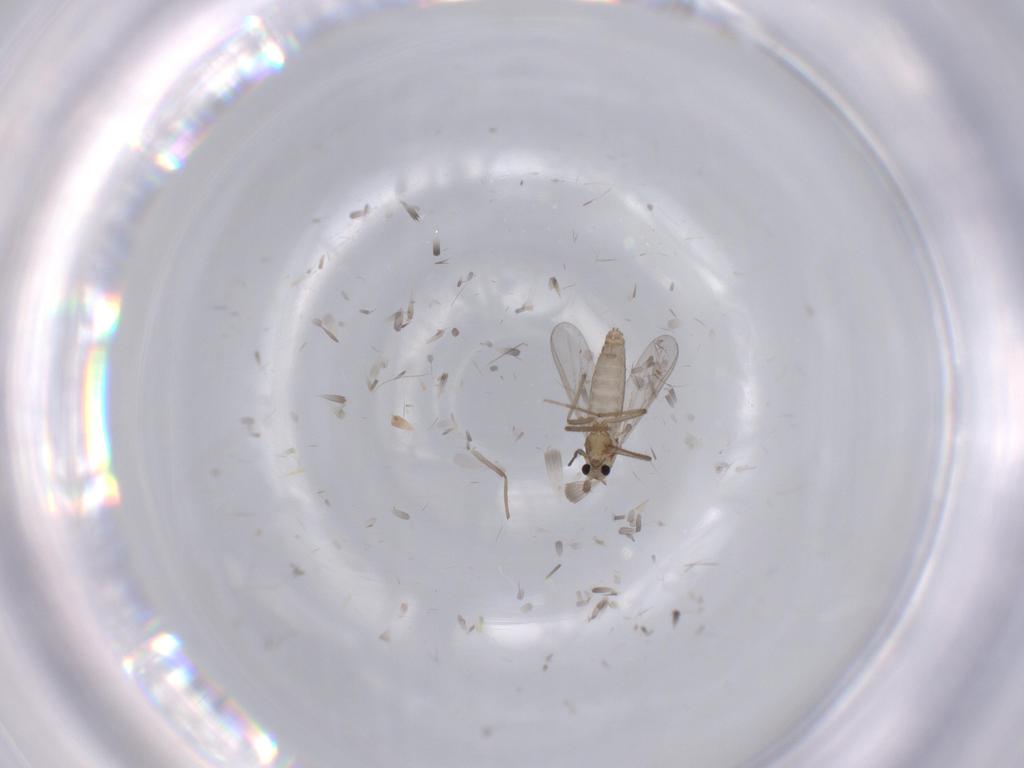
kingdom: Animalia
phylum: Arthropoda
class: Insecta
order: Diptera
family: Chironomidae
